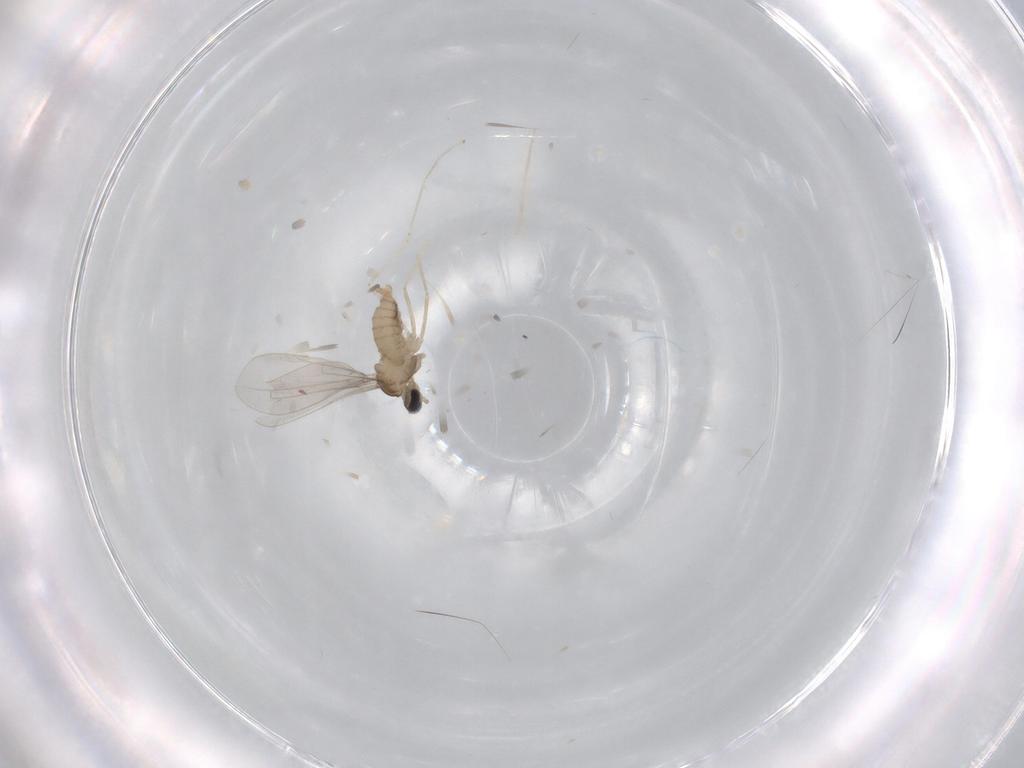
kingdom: Animalia
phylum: Arthropoda
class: Insecta
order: Diptera
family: Cecidomyiidae
